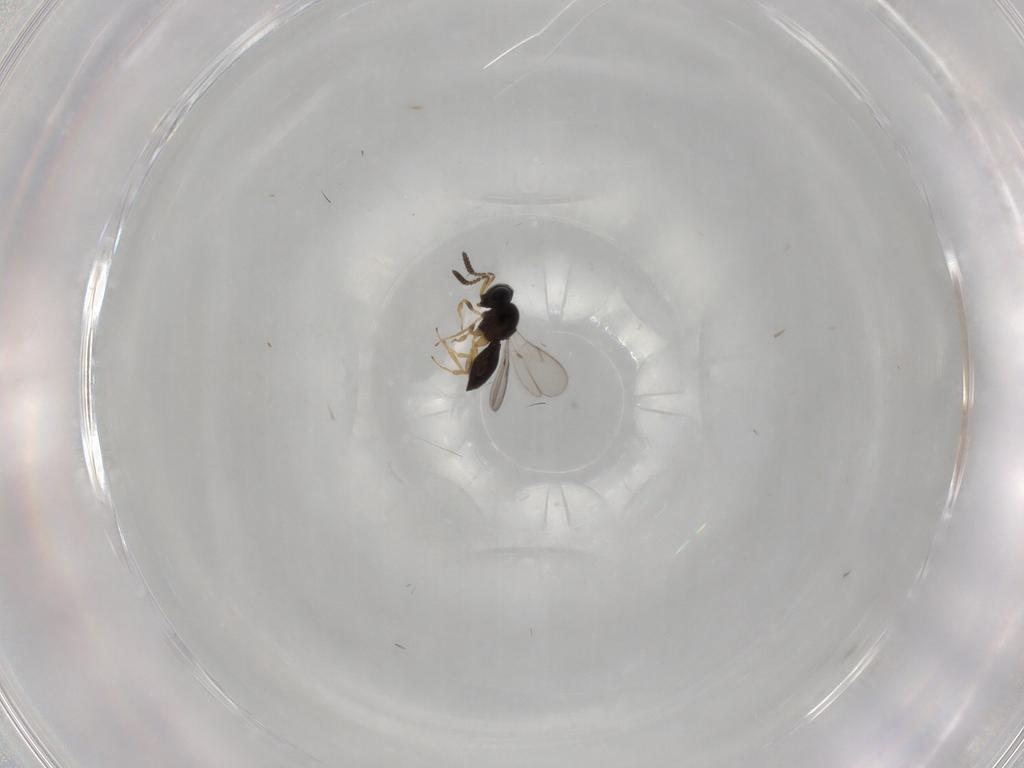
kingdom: Animalia
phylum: Arthropoda
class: Insecta
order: Hymenoptera
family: Scelionidae
